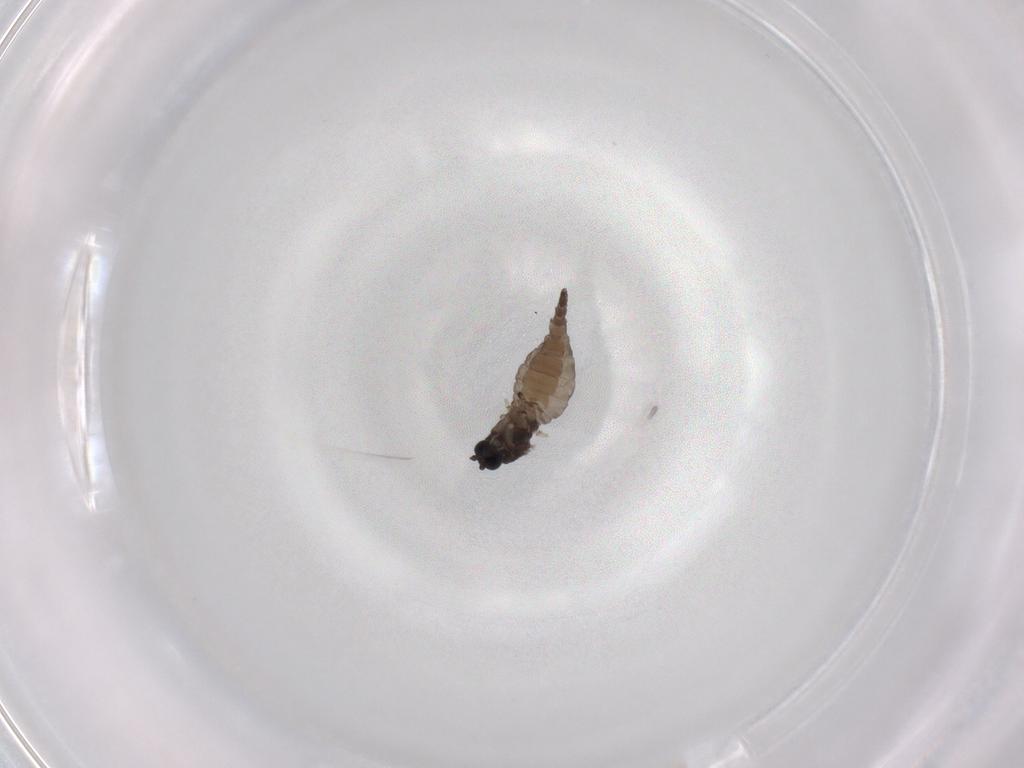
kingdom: Animalia
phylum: Arthropoda
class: Insecta
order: Diptera
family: Sciaridae
